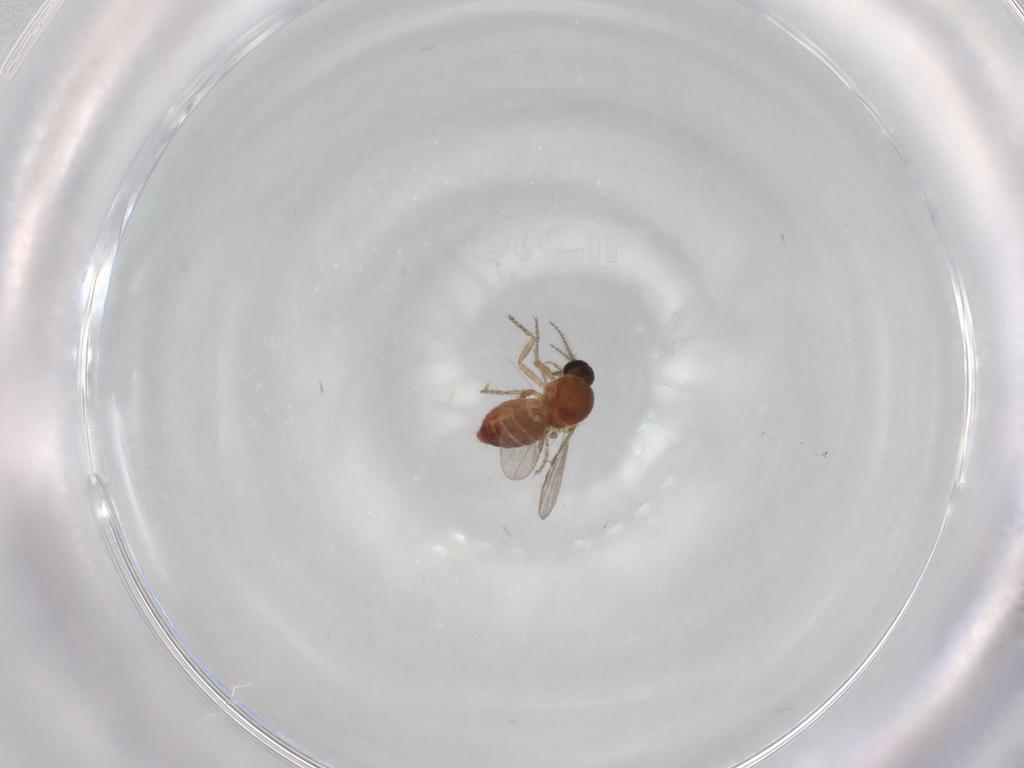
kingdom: Animalia
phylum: Arthropoda
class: Insecta
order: Diptera
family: Ceratopogonidae
